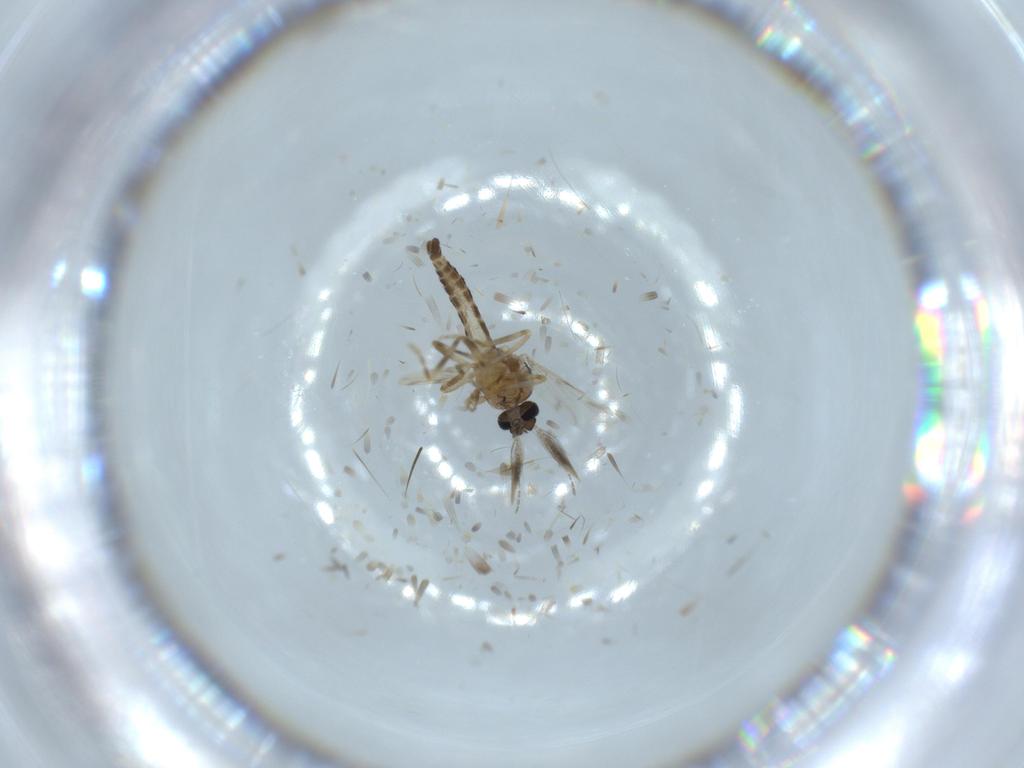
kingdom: Animalia
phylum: Arthropoda
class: Insecta
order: Diptera
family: Ceratopogonidae
